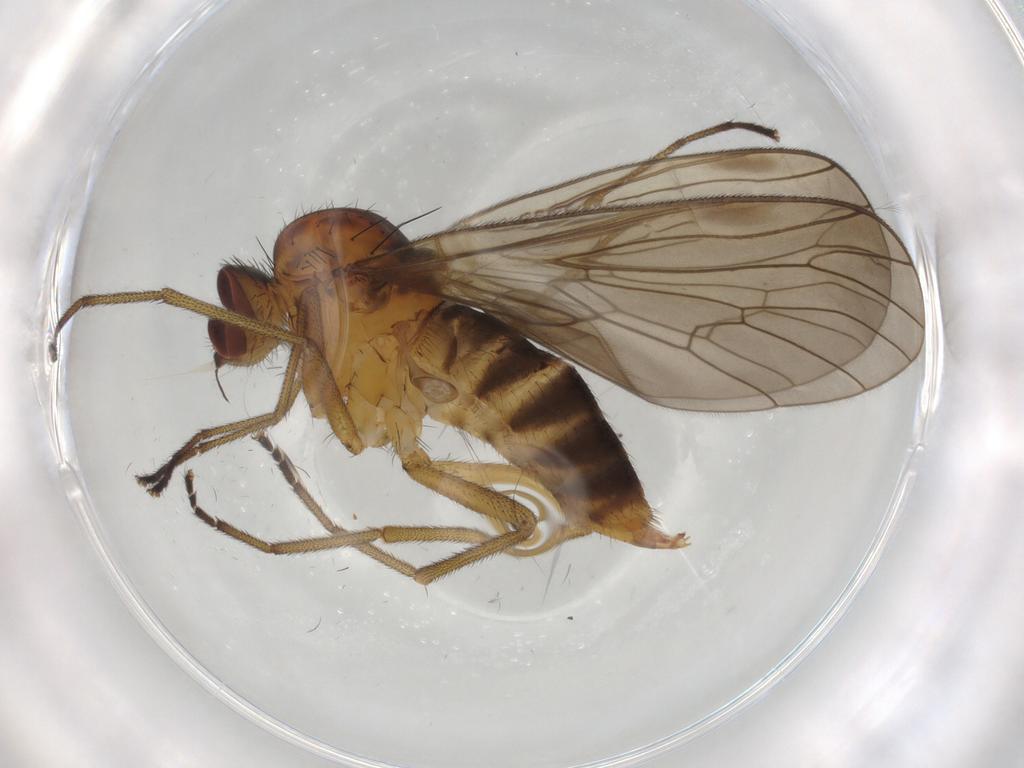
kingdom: Animalia
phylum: Arthropoda
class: Insecta
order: Diptera
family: Brachystomatidae
